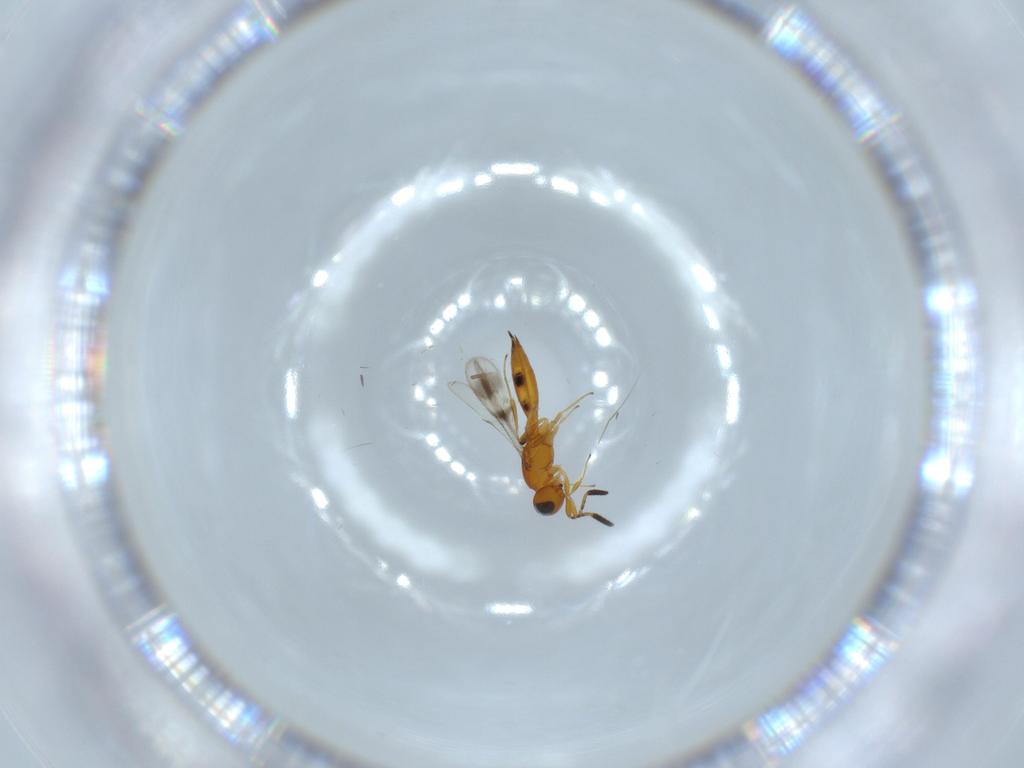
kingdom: Animalia
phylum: Arthropoda
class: Insecta
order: Hymenoptera
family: Scelionidae
